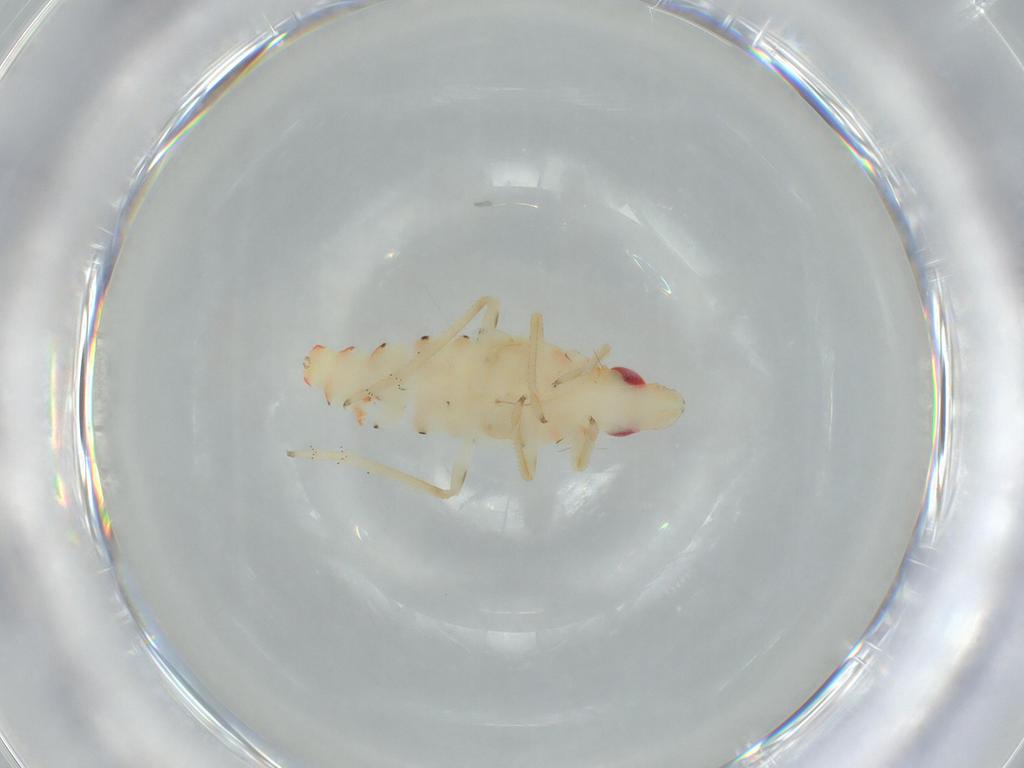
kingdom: Animalia
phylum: Arthropoda
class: Insecta
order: Hemiptera
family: Tropiduchidae
